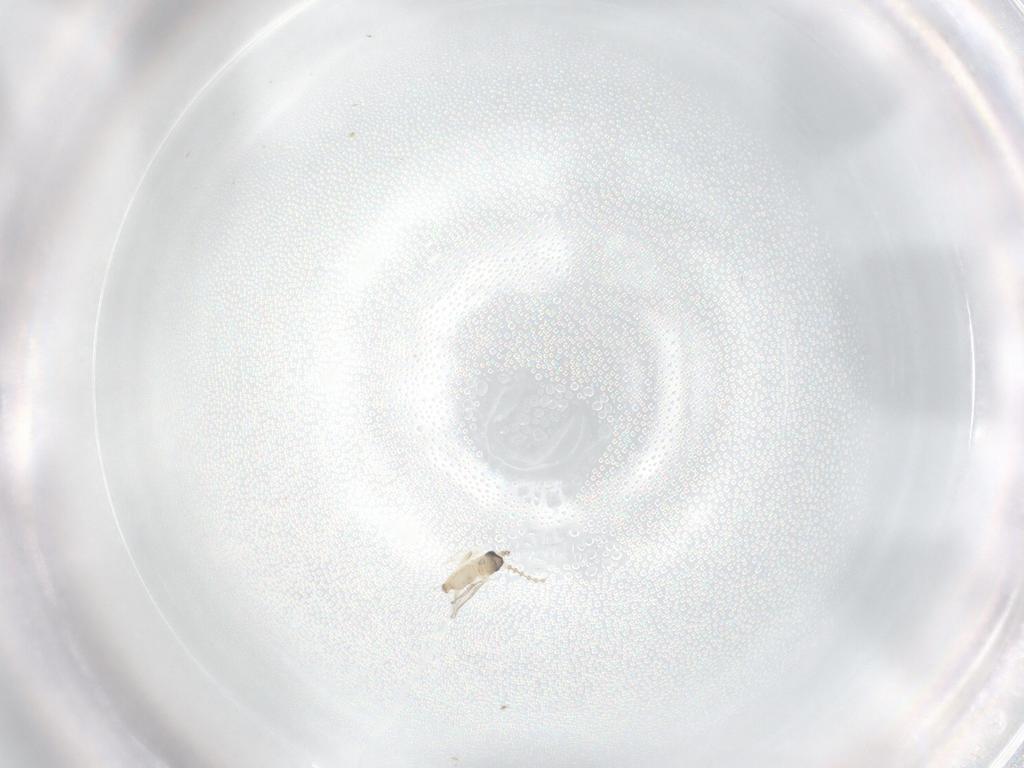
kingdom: Animalia
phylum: Arthropoda
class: Insecta
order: Diptera
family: Cecidomyiidae
